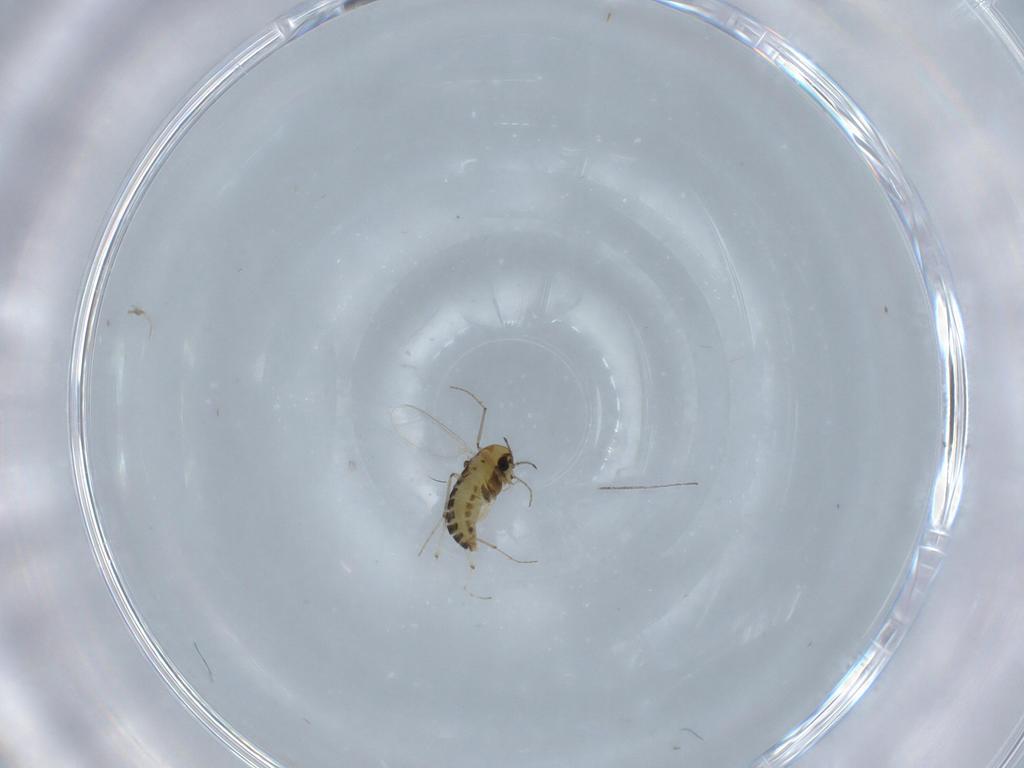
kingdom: Animalia
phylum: Arthropoda
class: Insecta
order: Diptera
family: Chironomidae
